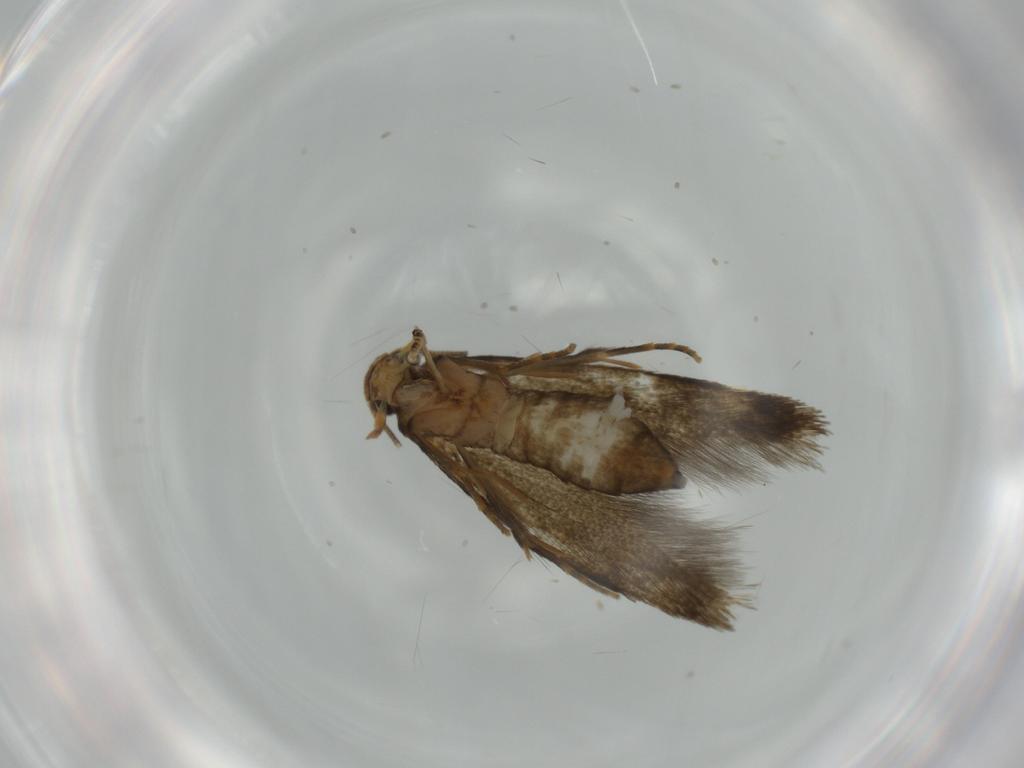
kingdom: Animalia
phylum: Arthropoda
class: Insecta
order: Lepidoptera
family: Tineidae
